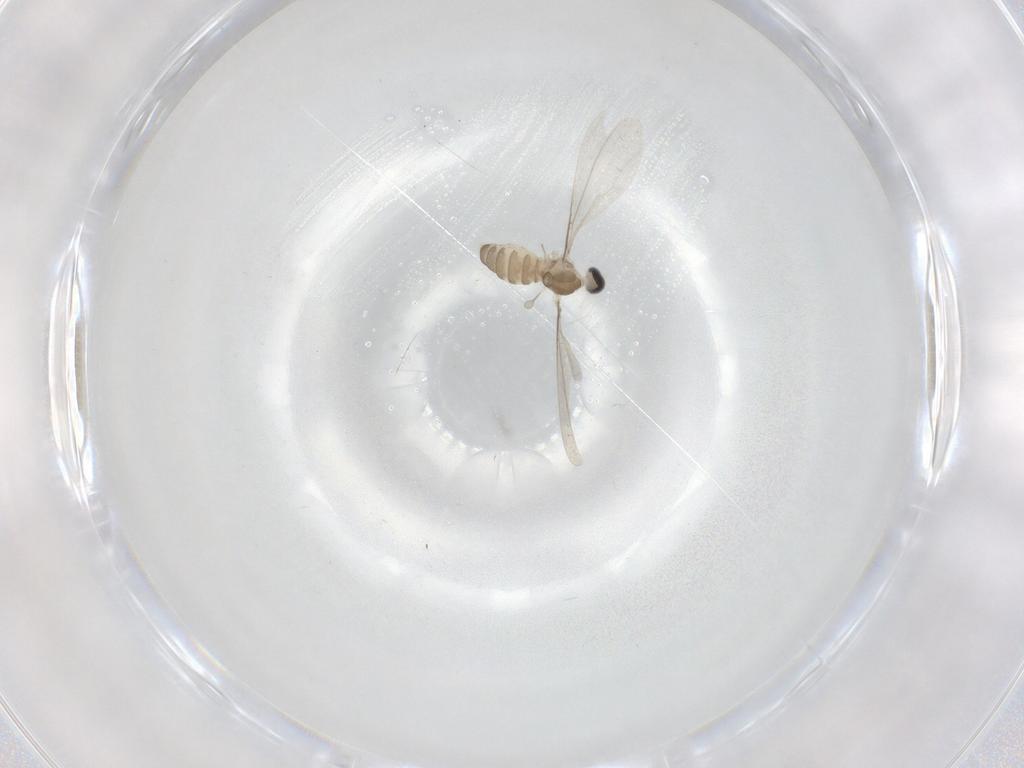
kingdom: Animalia
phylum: Arthropoda
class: Insecta
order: Diptera
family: Cecidomyiidae
